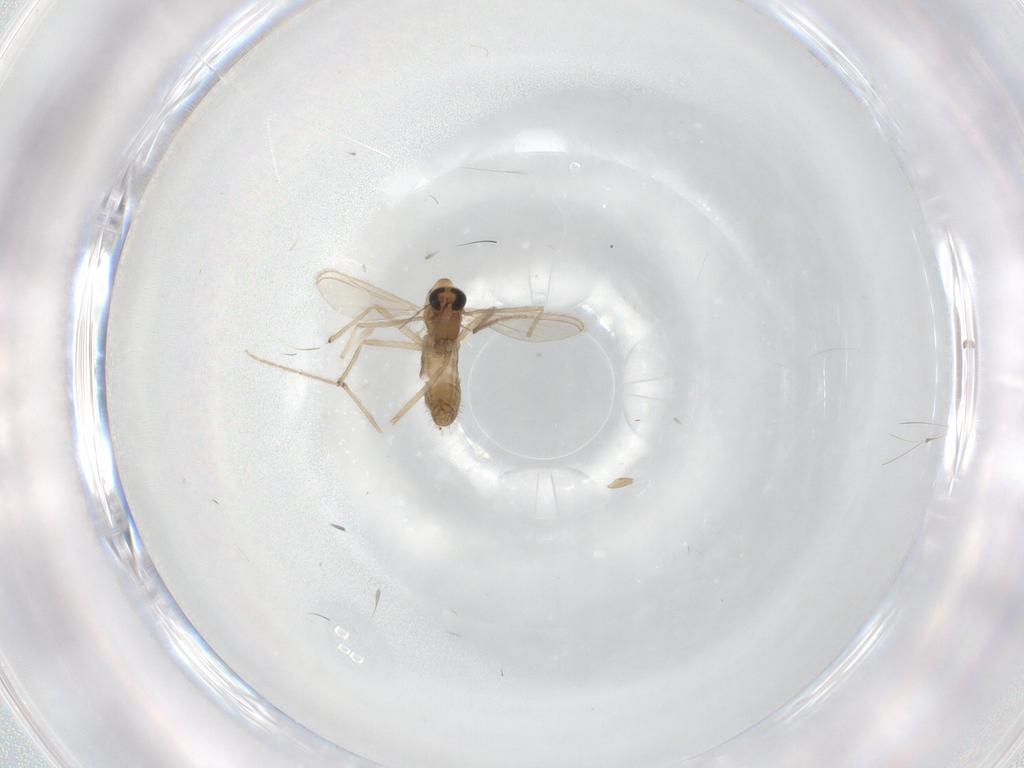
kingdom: Animalia
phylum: Arthropoda
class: Insecta
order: Diptera
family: Chironomidae
